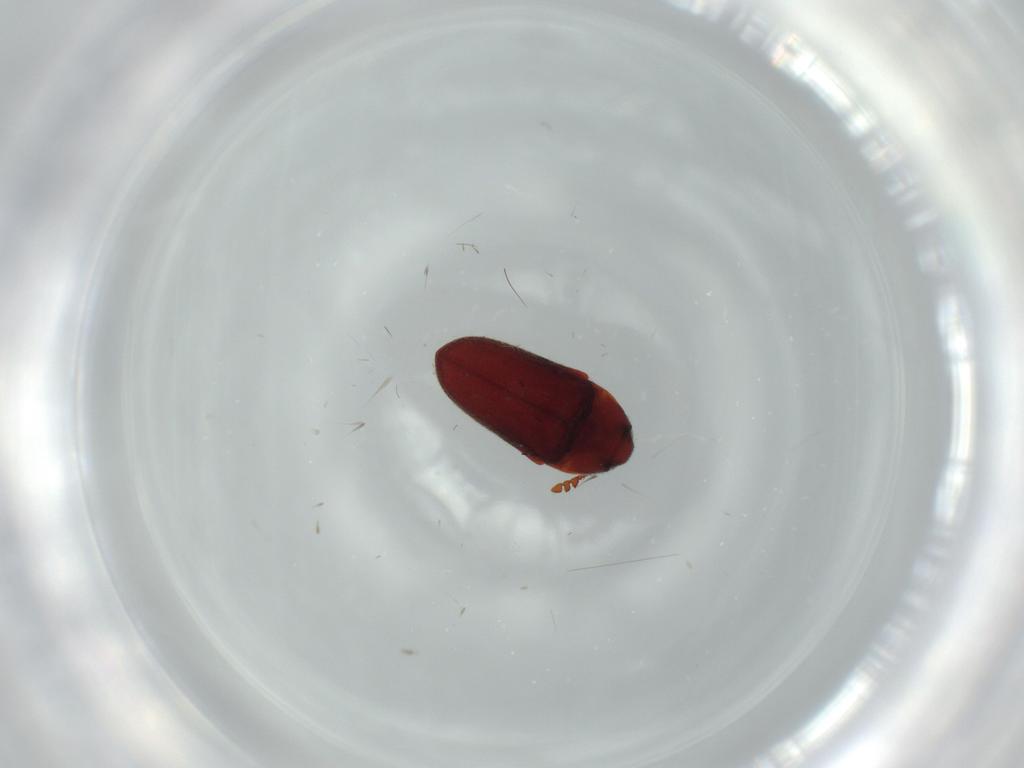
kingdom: Animalia
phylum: Arthropoda
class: Insecta
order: Coleoptera
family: Throscidae
